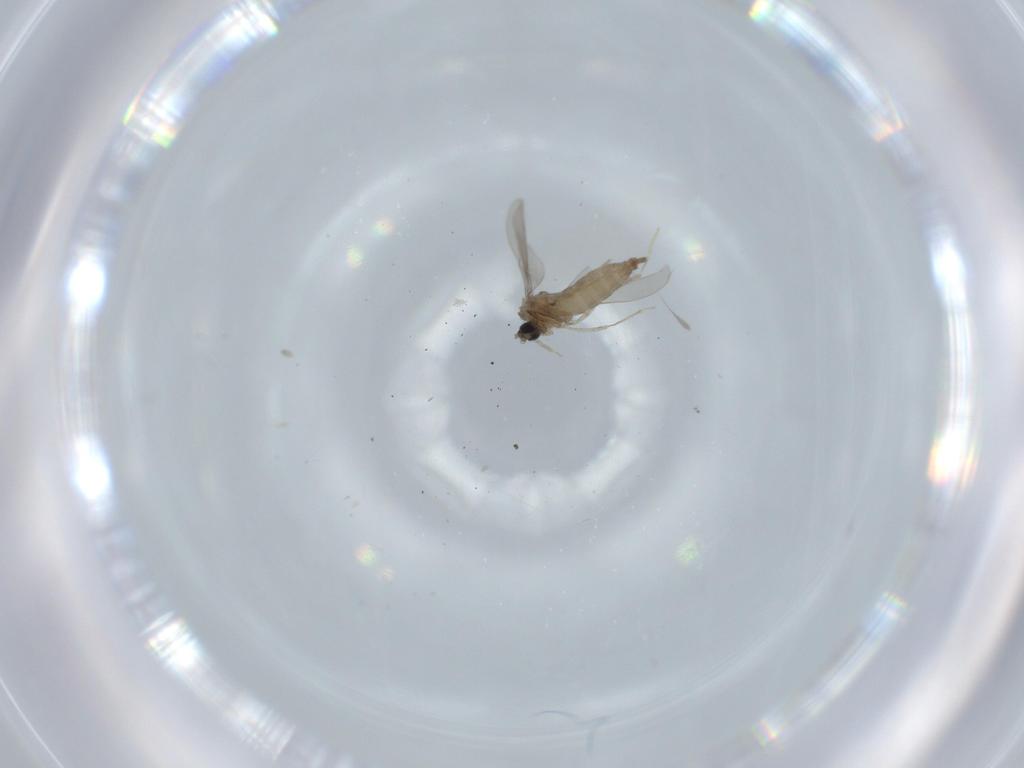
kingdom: Animalia
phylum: Arthropoda
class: Insecta
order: Diptera
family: Cecidomyiidae
